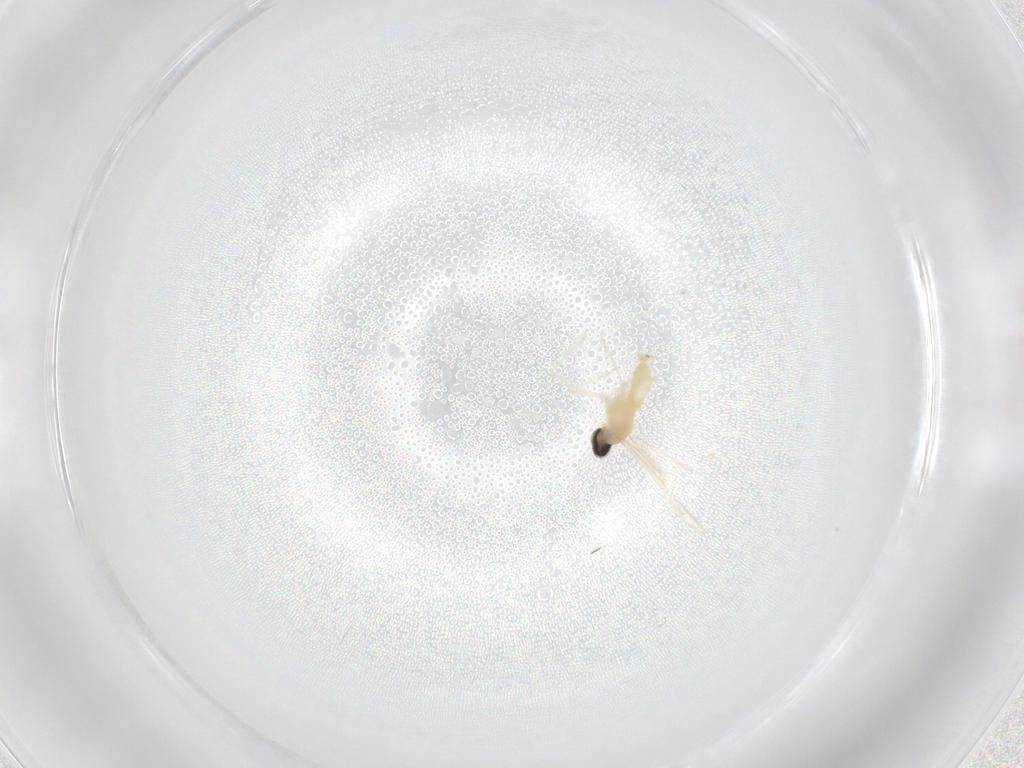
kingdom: Animalia
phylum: Arthropoda
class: Insecta
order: Diptera
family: Cecidomyiidae
